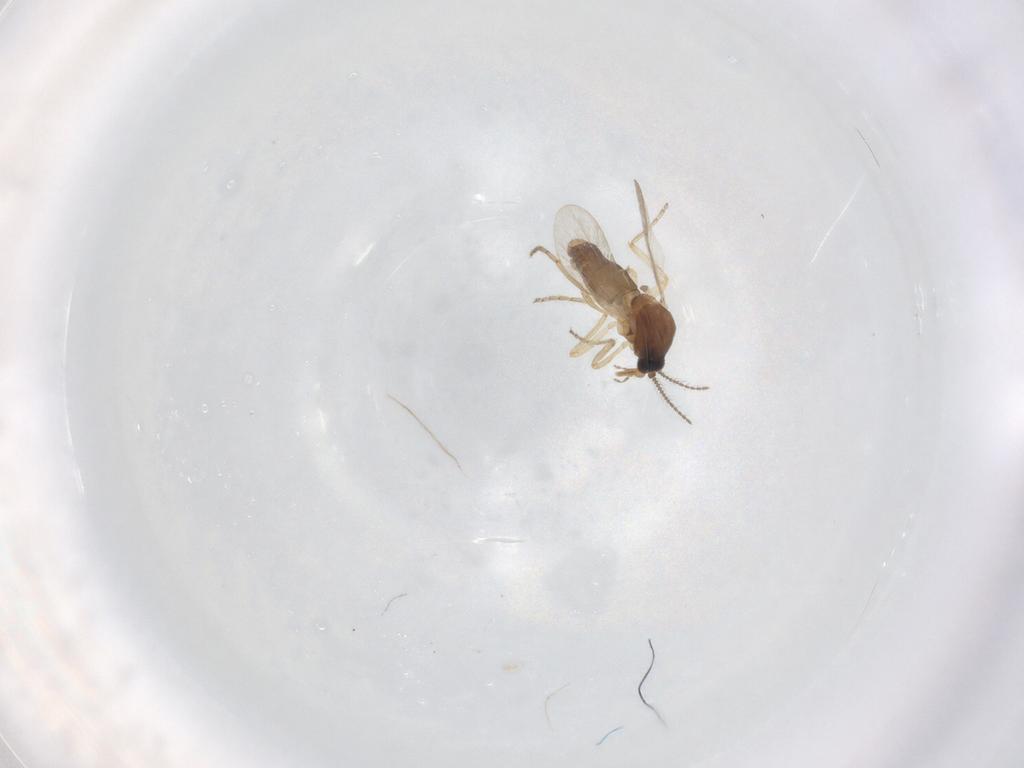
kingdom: Animalia
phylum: Arthropoda
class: Insecta
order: Diptera
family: Ceratopogonidae
